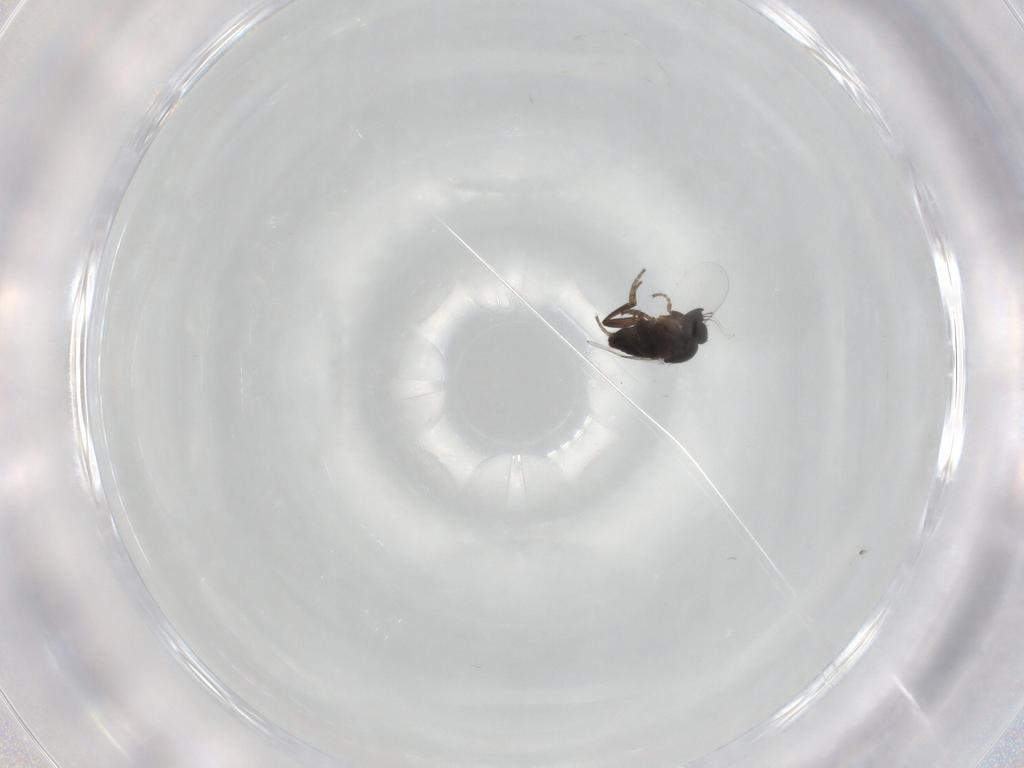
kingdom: Animalia
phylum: Arthropoda
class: Insecta
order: Diptera
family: Phoridae
